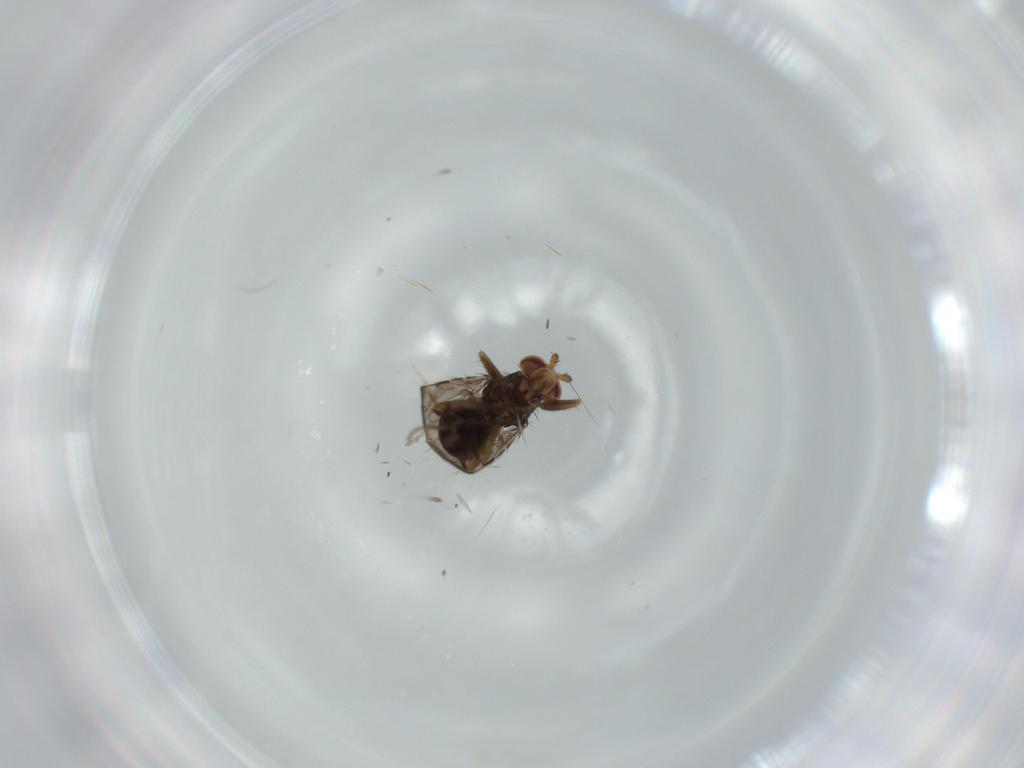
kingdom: Animalia
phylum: Arthropoda
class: Insecta
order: Diptera
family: Sphaeroceridae
